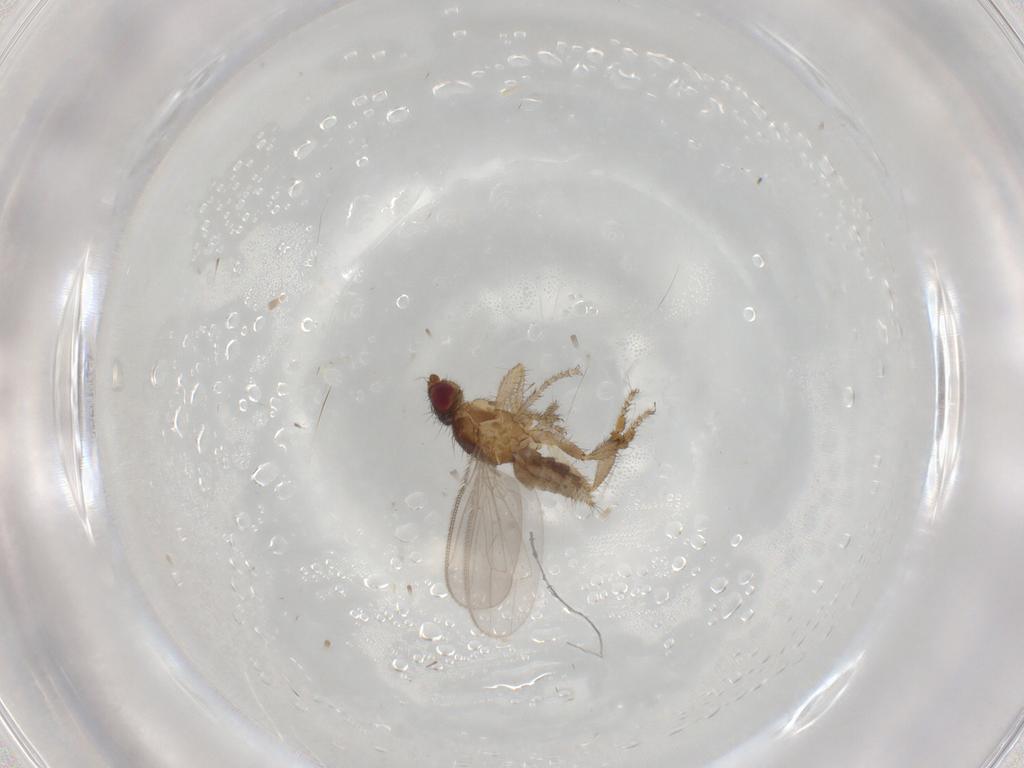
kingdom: Animalia
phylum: Arthropoda
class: Insecta
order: Diptera
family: Sphaeroceridae
